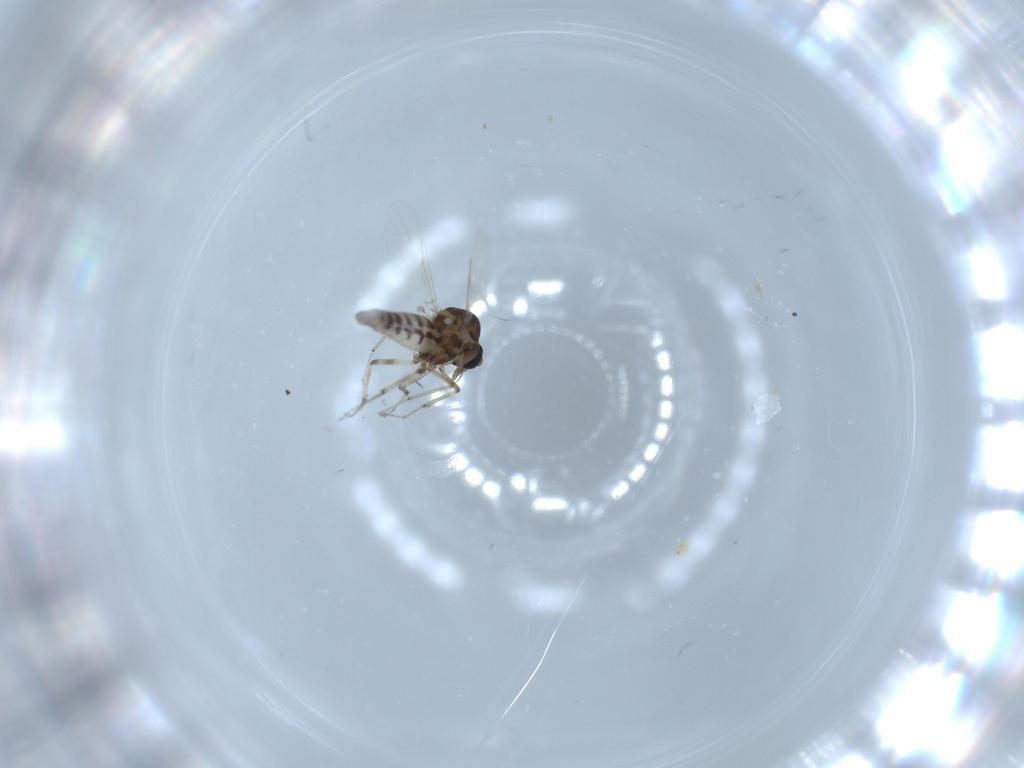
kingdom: Animalia
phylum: Arthropoda
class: Insecta
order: Diptera
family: Ceratopogonidae
